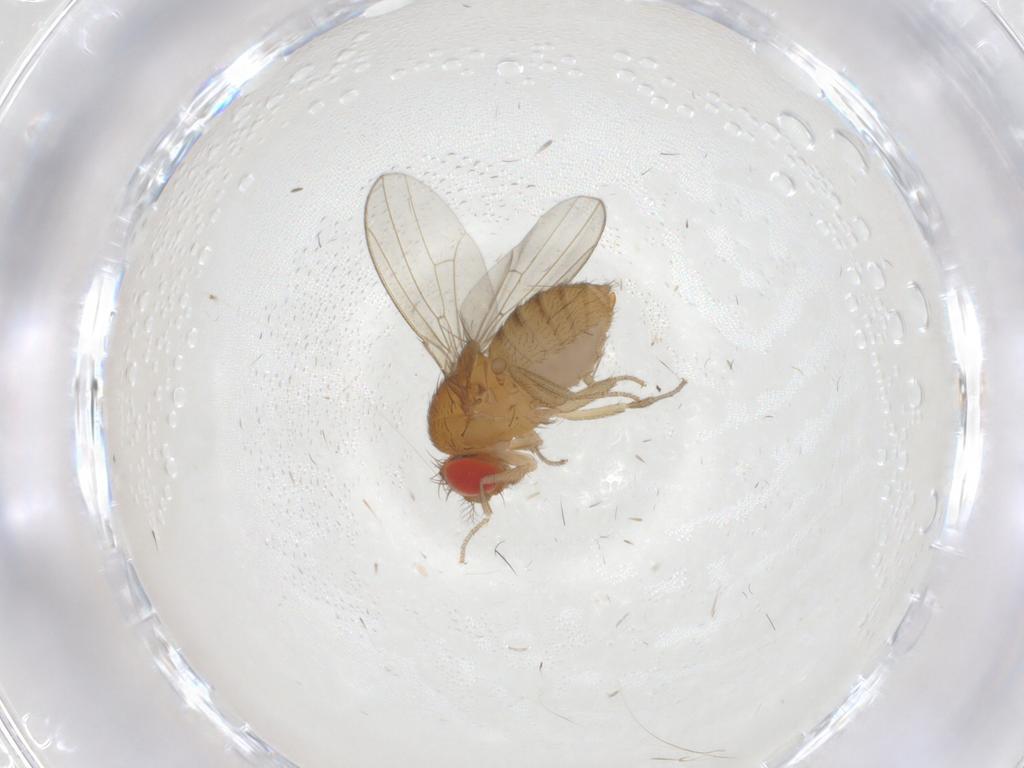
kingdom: Animalia
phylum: Arthropoda
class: Insecta
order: Diptera
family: Drosophilidae
